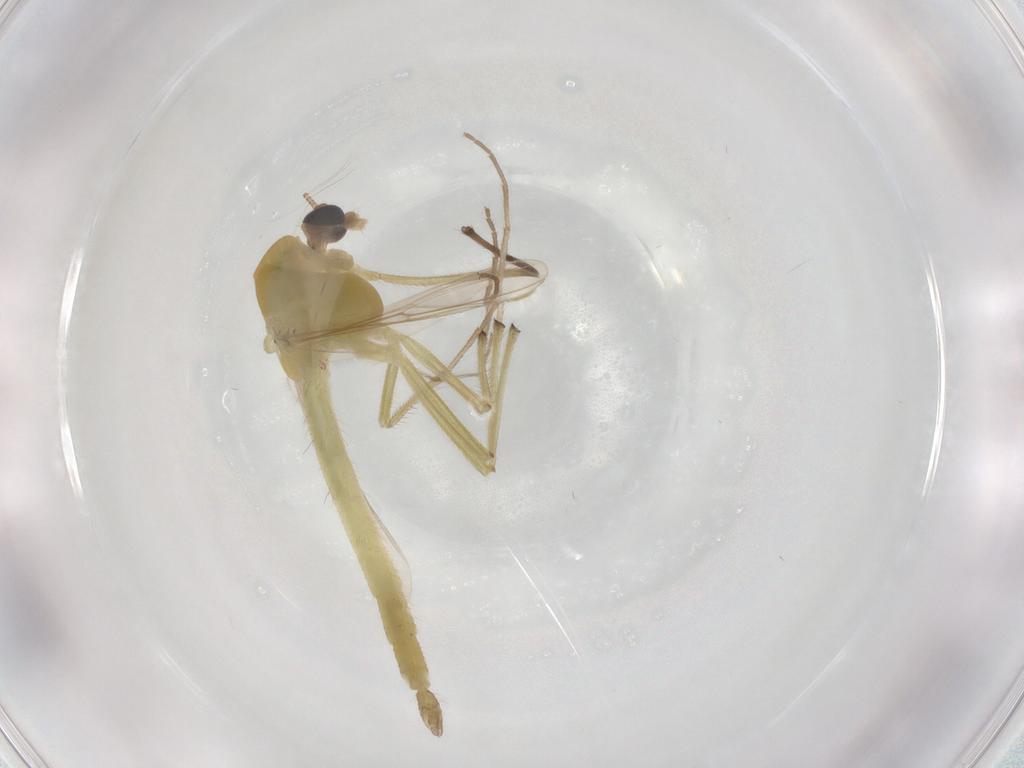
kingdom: Animalia
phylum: Arthropoda
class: Insecta
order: Diptera
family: Chironomidae
